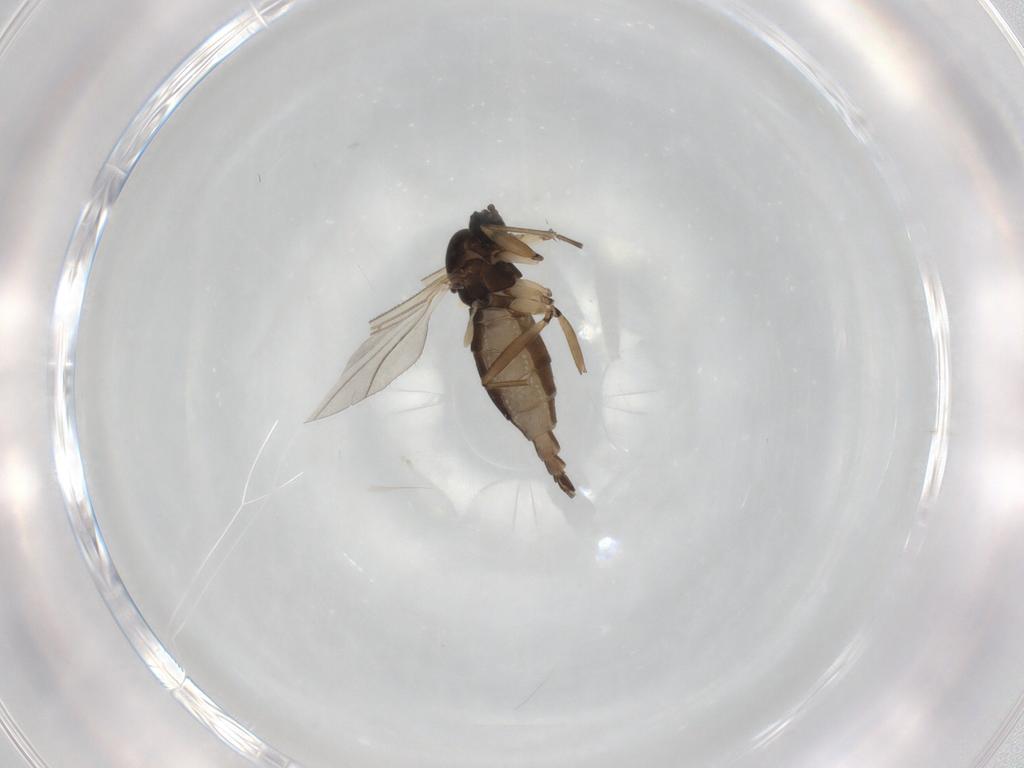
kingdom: Animalia
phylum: Arthropoda
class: Insecta
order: Diptera
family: Sciaridae
